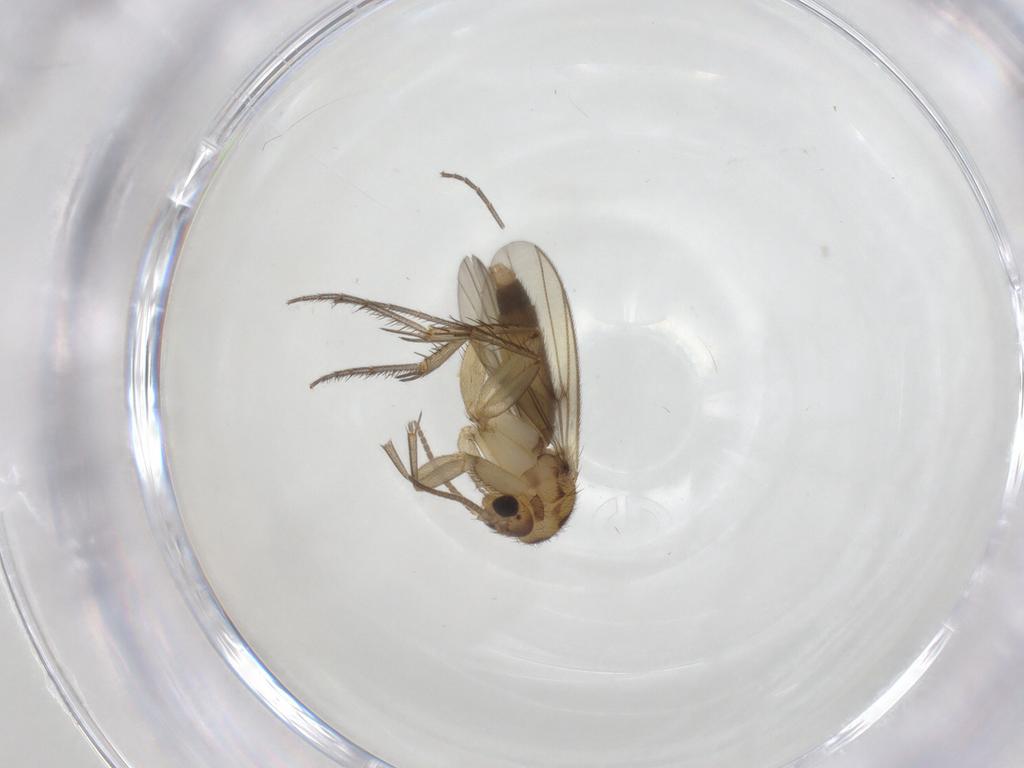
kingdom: Animalia
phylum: Arthropoda
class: Insecta
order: Diptera
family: Mycetophilidae
